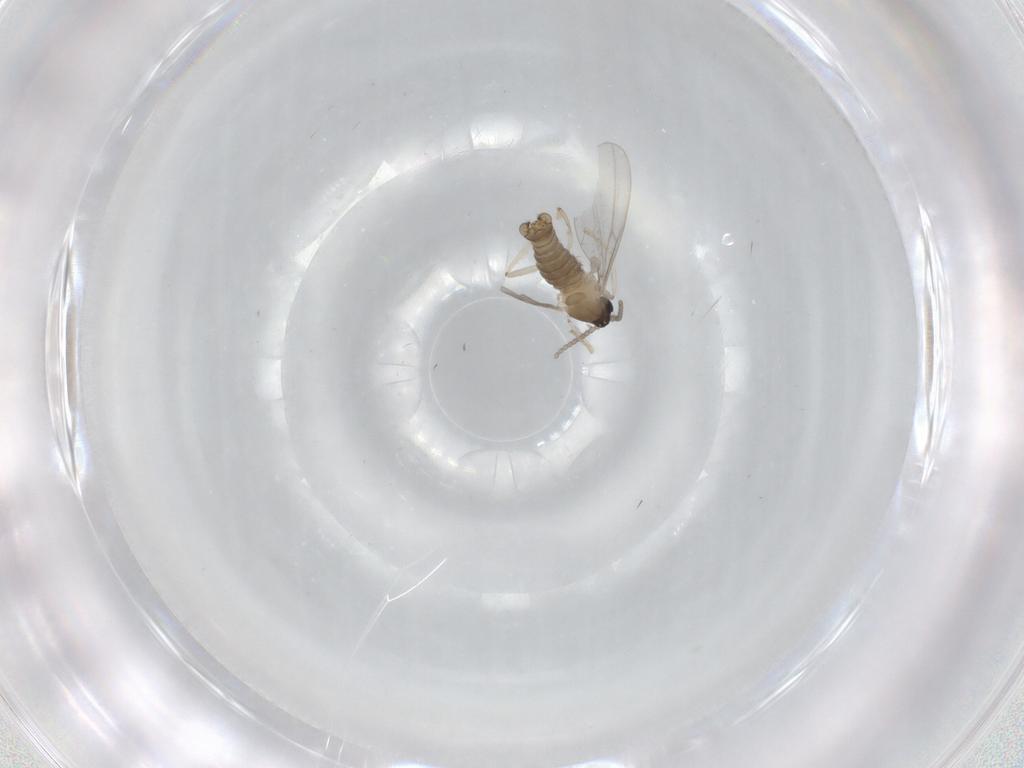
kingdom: Animalia
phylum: Arthropoda
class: Insecta
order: Diptera
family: Cecidomyiidae
